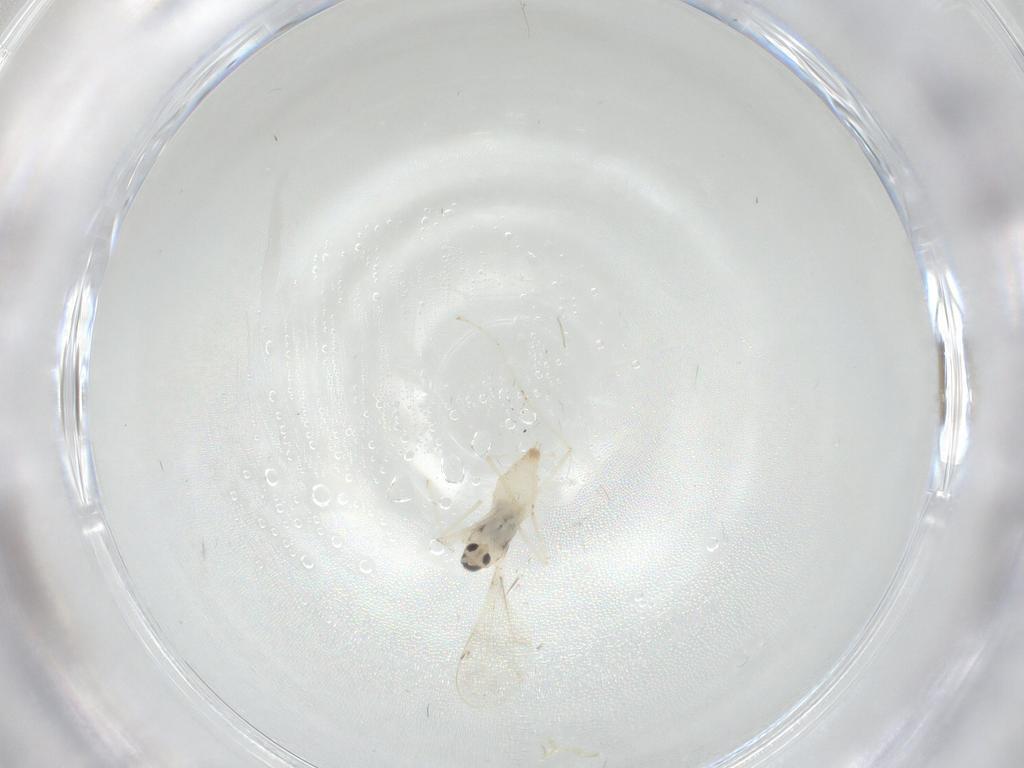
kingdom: Animalia
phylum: Arthropoda
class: Insecta
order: Diptera
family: Cecidomyiidae
